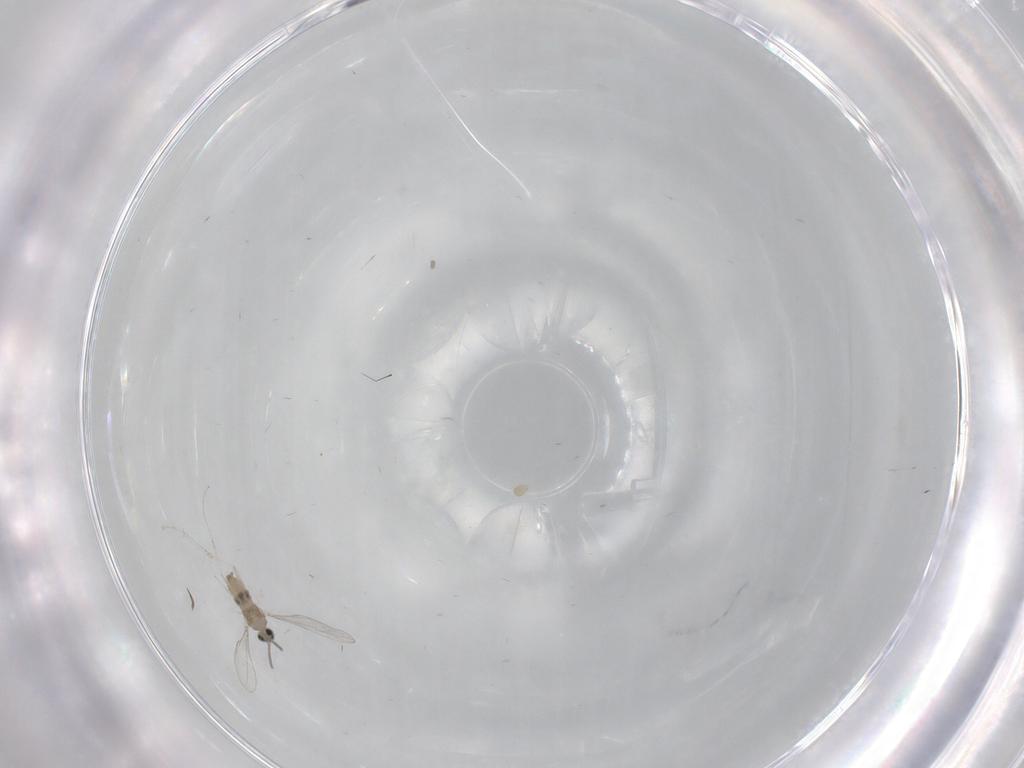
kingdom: Animalia
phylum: Arthropoda
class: Insecta
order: Diptera
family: Cecidomyiidae
